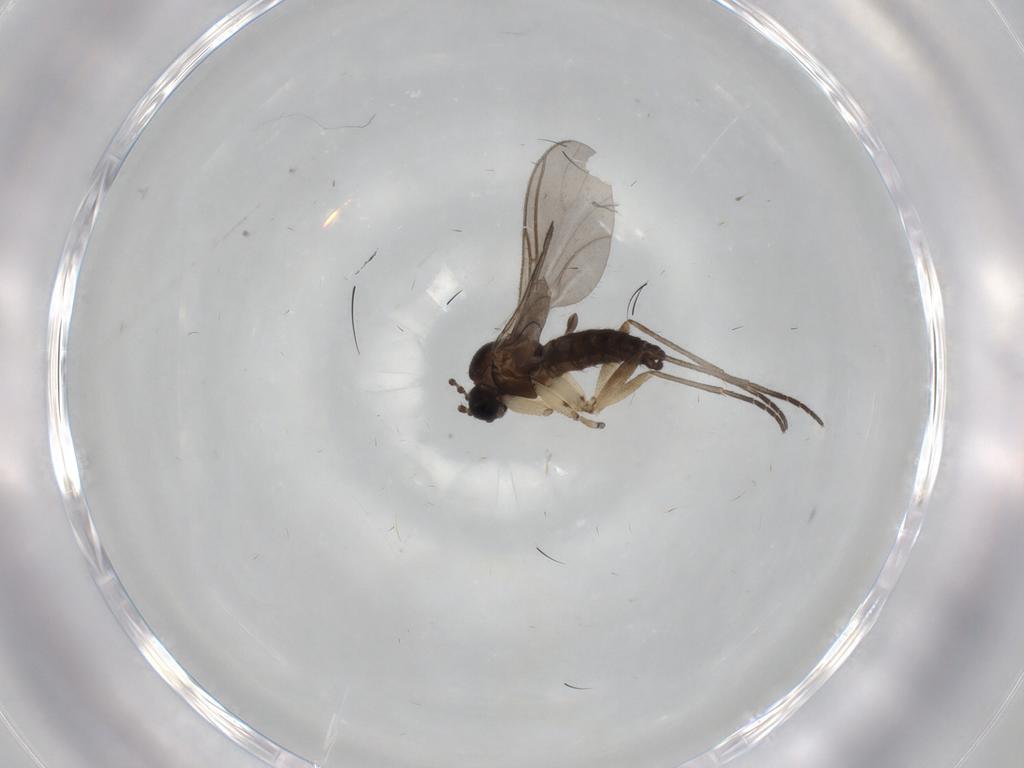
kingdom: Animalia
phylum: Arthropoda
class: Insecta
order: Diptera
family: Sciaridae
